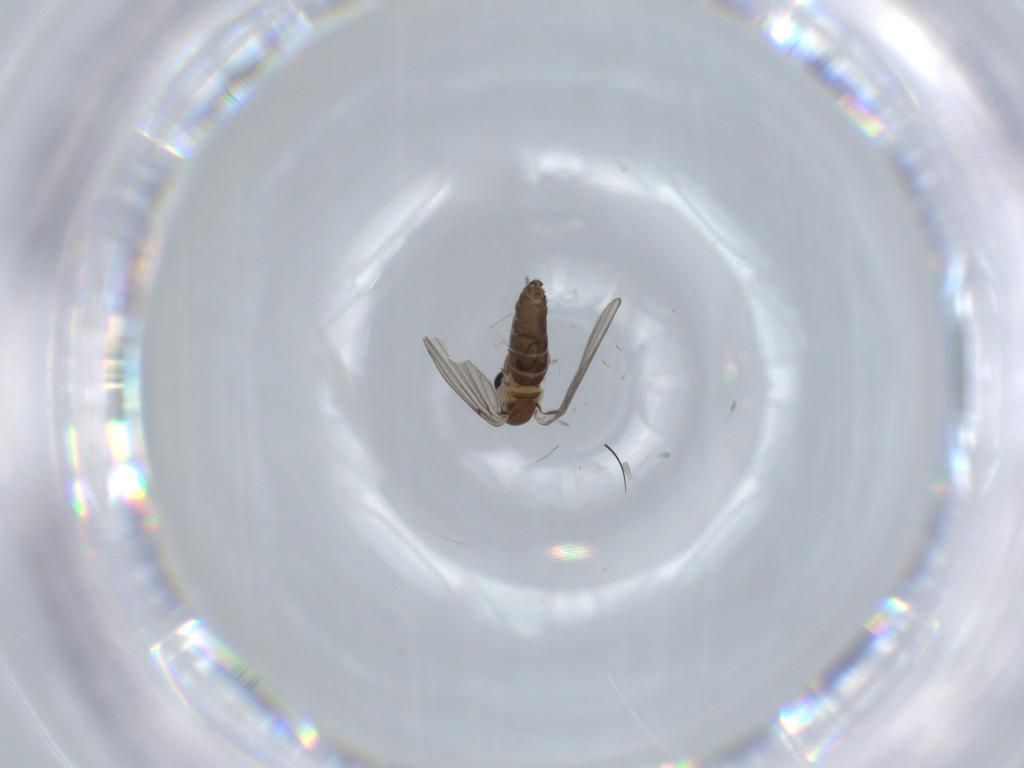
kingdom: Animalia
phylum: Arthropoda
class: Insecta
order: Diptera
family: Psychodidae
